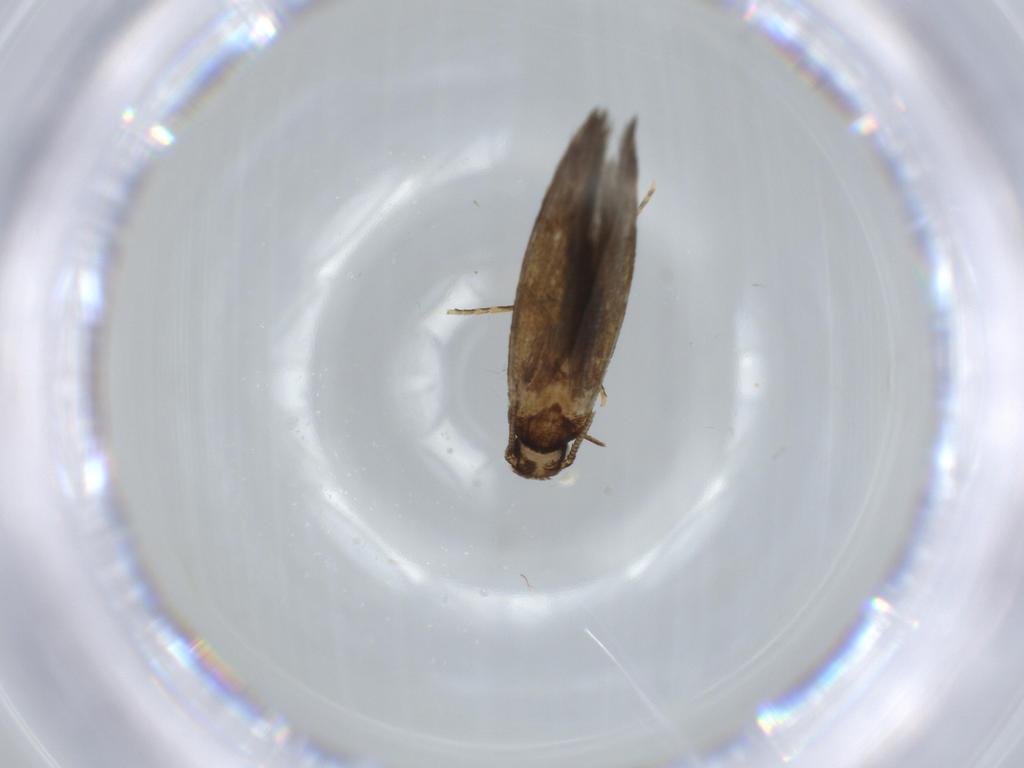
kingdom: Animalia
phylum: Arthropoda
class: Insecta
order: Lepidoptera
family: Tineidae
